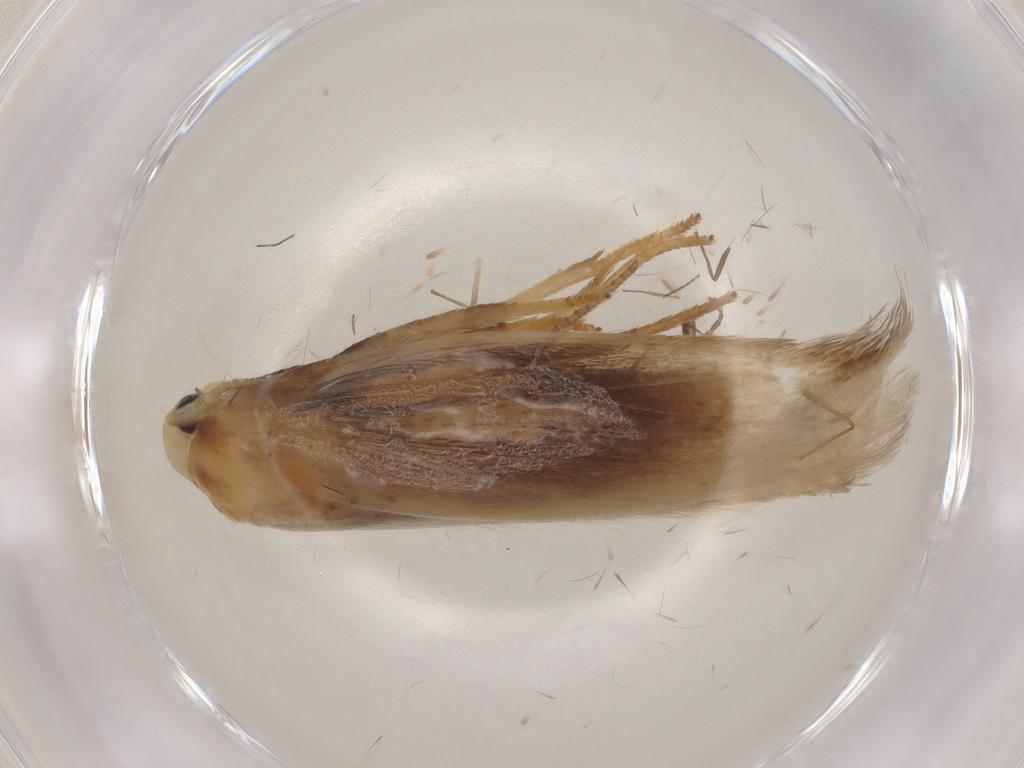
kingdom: Animalia
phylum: Arthropoda
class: Insecta
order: Lepidoptera
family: Geometridae
